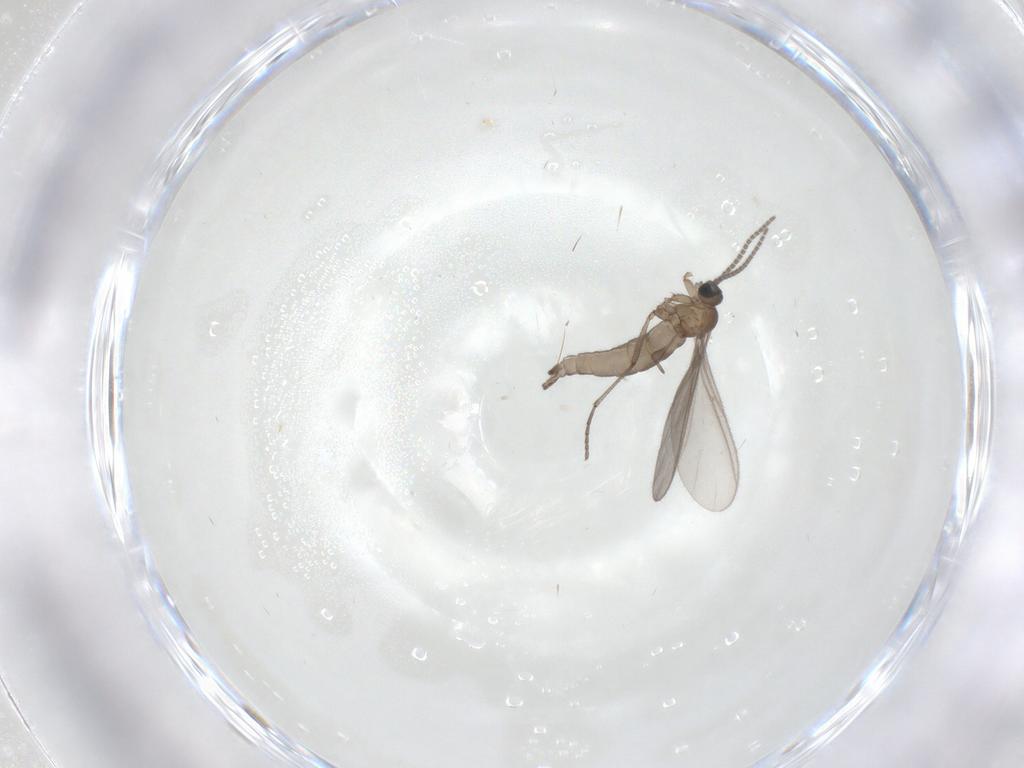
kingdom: Animalia
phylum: Arthropoda
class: Insecta
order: Diptera
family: Sciaridae
